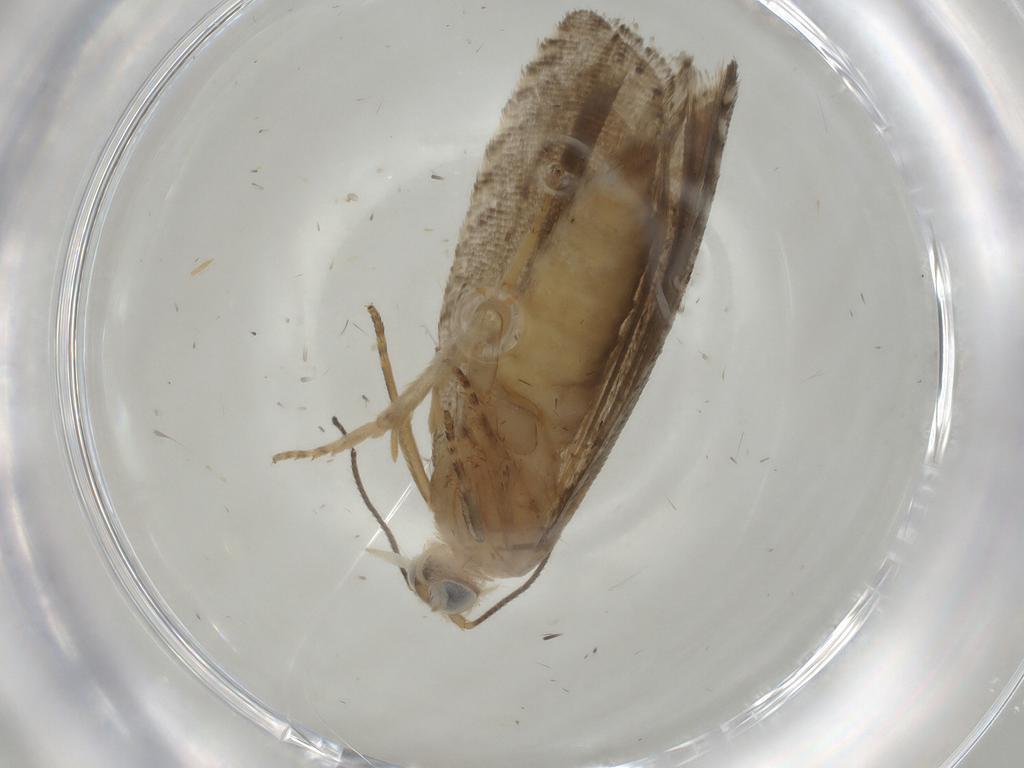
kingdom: Animalia
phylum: Arthropoda
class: Insecta
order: Lepidoptera
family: Tortricidae
